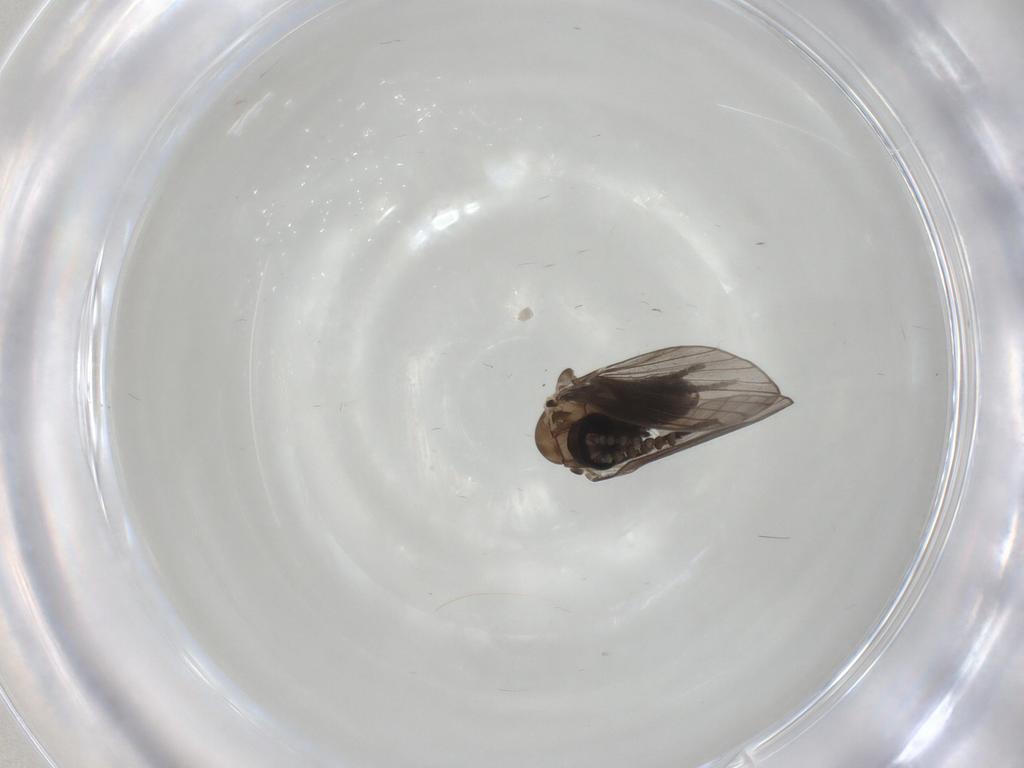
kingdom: Animalia
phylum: Arthropoda
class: Insecta
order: Diptera
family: Psychodidae
